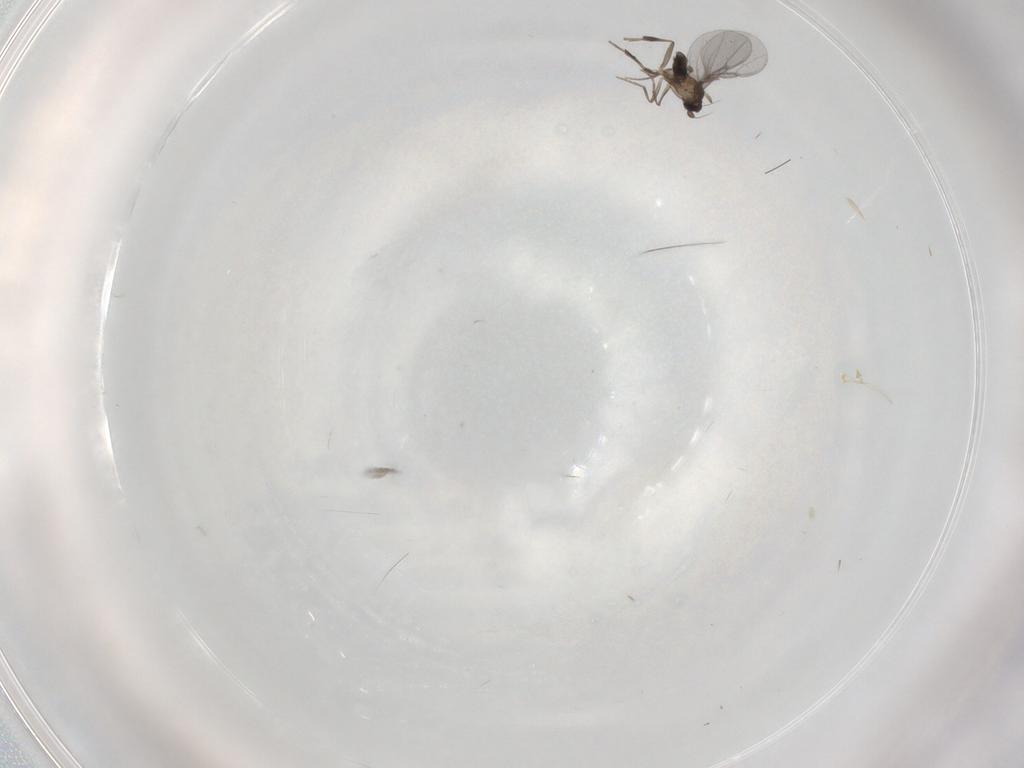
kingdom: Animalia
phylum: Arthropoda
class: Insecta
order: Diptera
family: Phoridae
